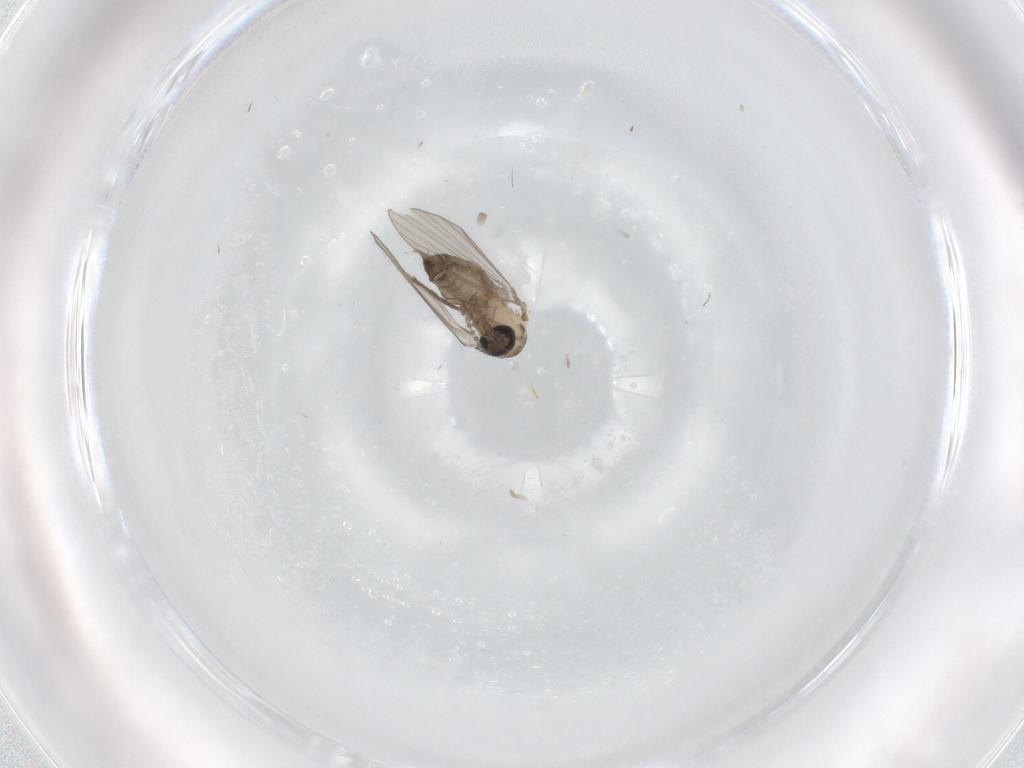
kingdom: Animalia
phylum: Arthropoda
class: Insecta
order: Diptera
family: Psychodidae
